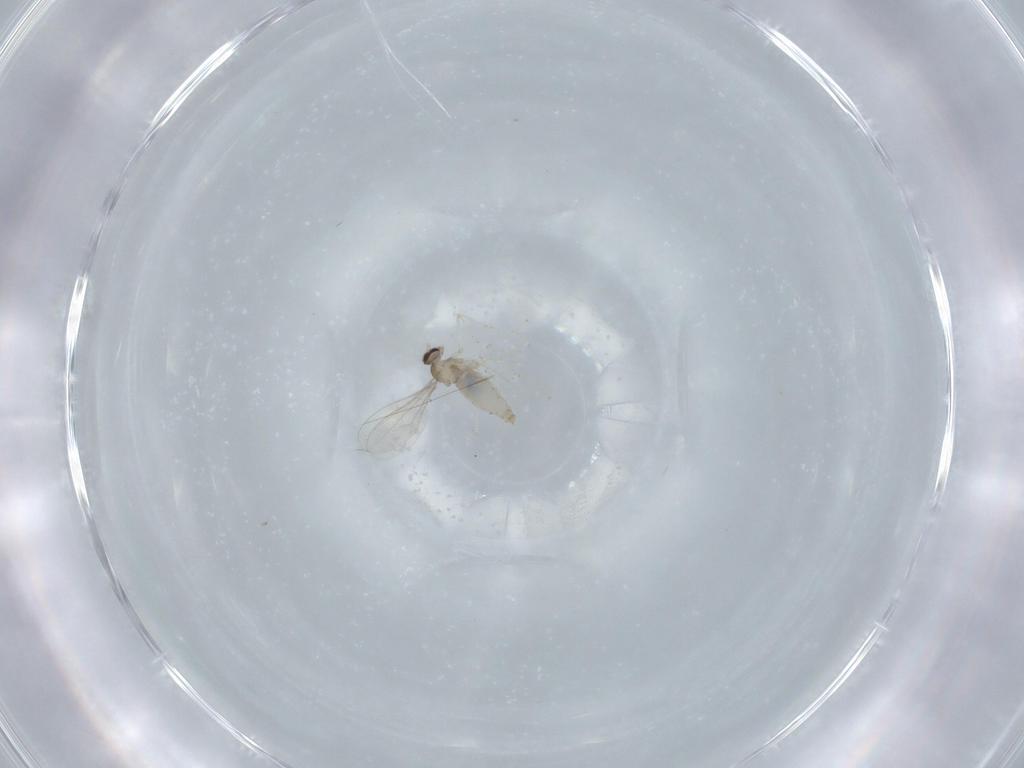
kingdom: Animalia
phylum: Arthropoda
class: Insecta
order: Diptera
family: Cecidomyiidae
